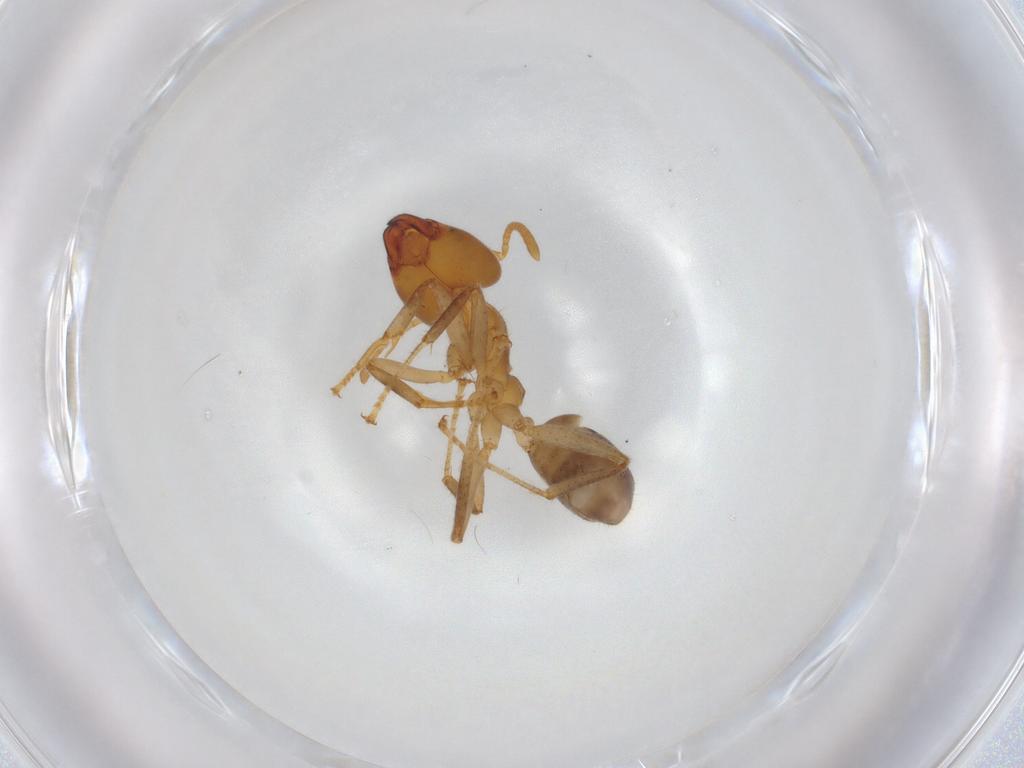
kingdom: Animalia
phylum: Arthropoda
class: Insecta
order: Hymenoptera
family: Formicidae
